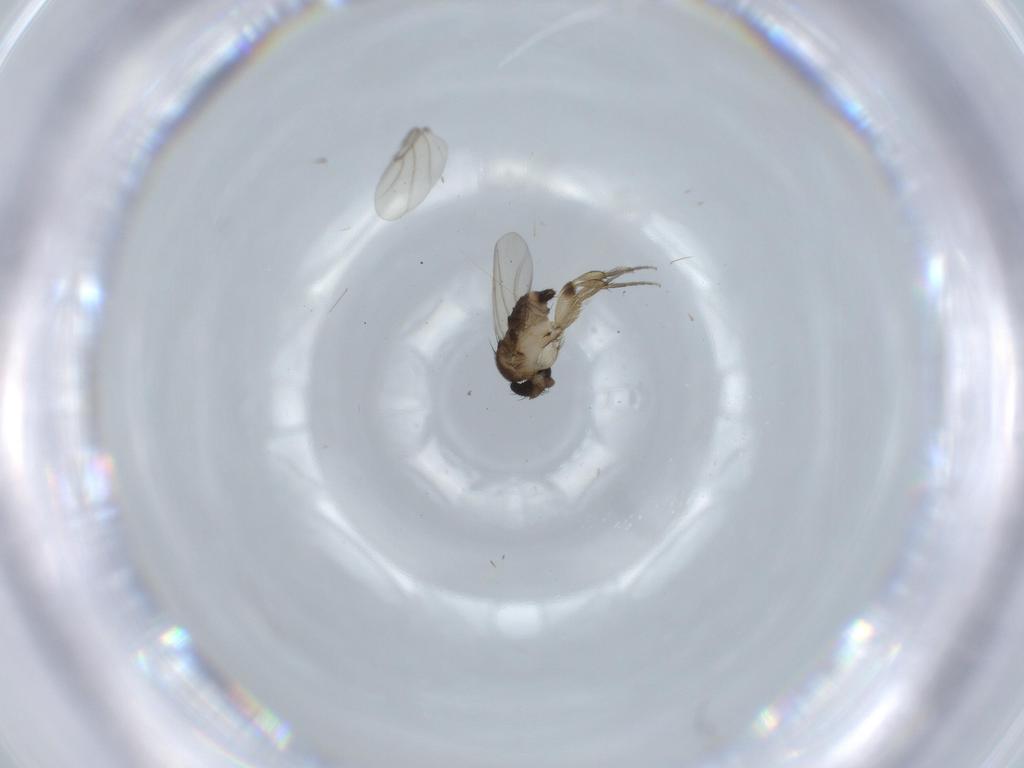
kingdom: Animalia
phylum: Arthropoda
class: Insecta
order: Diptera
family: Phoridae
